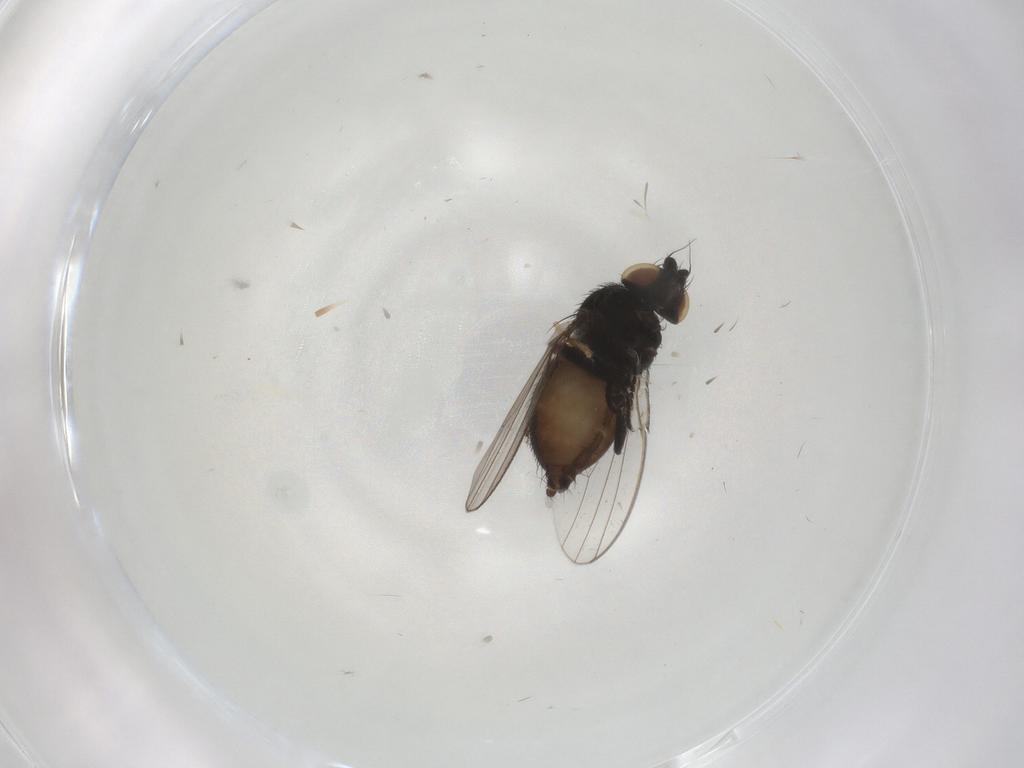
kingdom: Animalia
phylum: Arthropoda
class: Insecta
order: Diptera
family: Milichiidae
